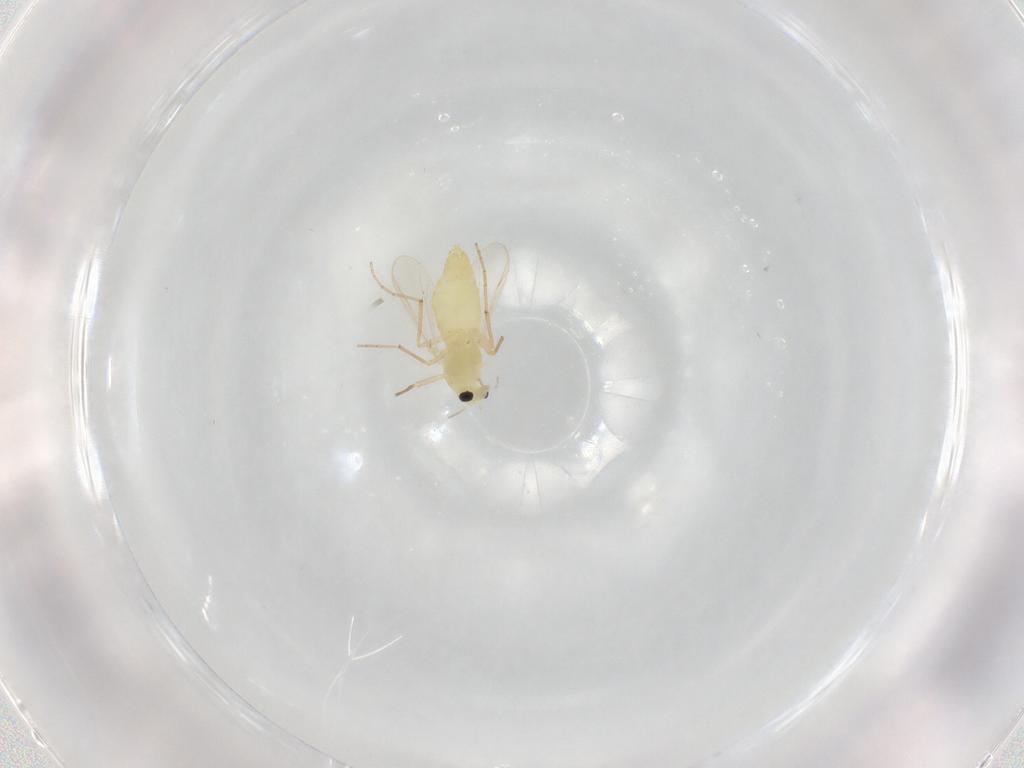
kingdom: Animalia
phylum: Arthropoda
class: Insecta
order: Diptera
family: Chironomidae
